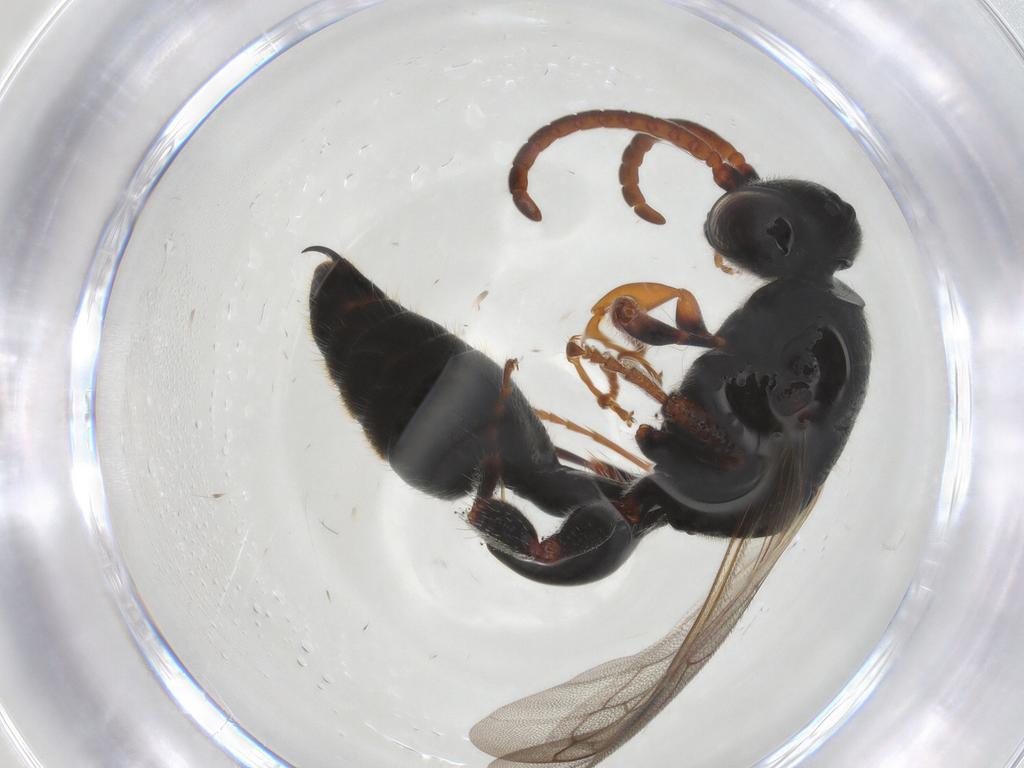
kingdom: Animalia
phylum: Arthropoda
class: Insecta
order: Hymenoptera
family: Tiphiidae
